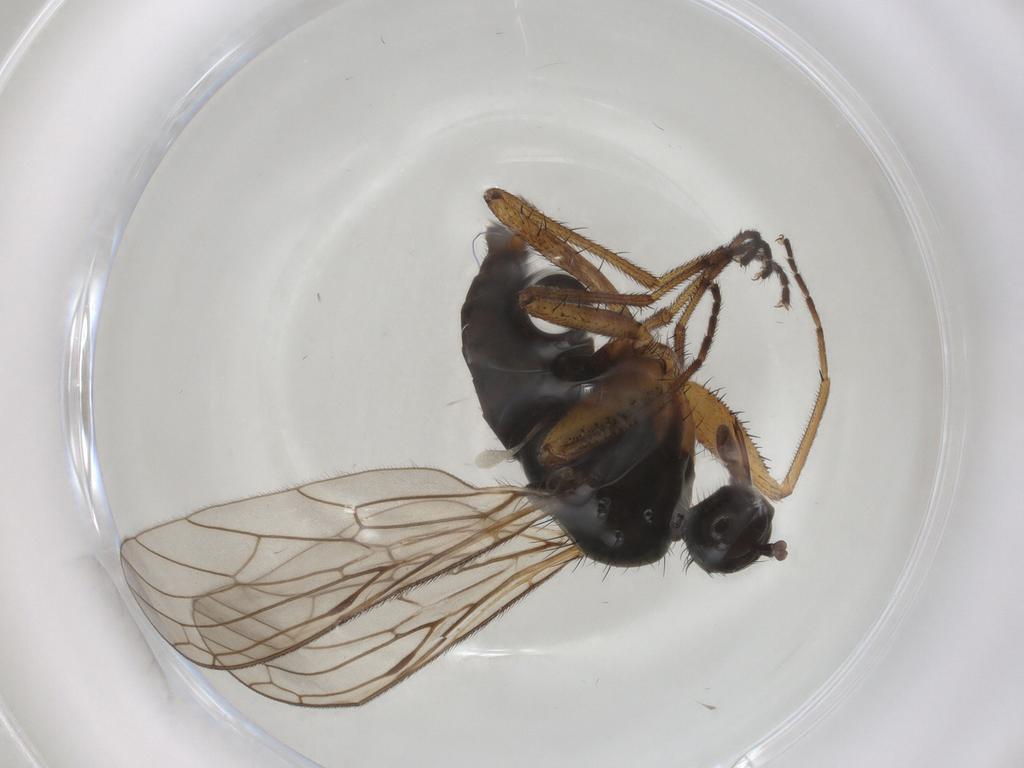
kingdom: Animalia
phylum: Arthropoda
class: Insecta
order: Diptera
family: Empididae
